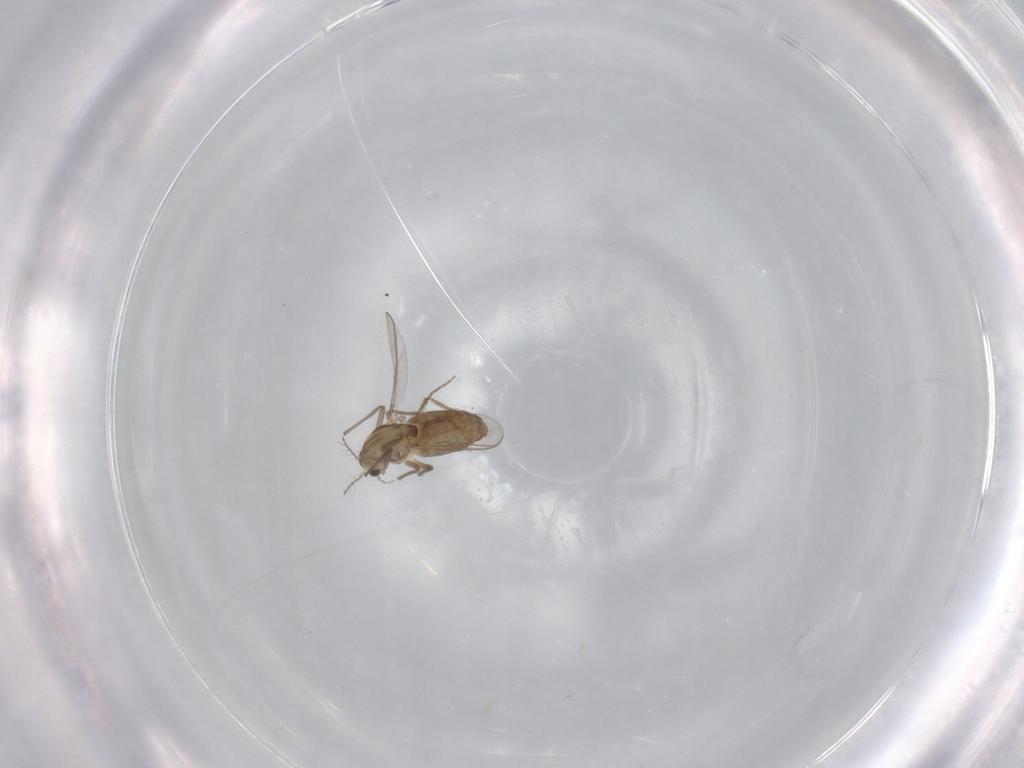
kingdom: Animalia
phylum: Arthropoda
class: Insecta
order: Diptera
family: Chironomidae
